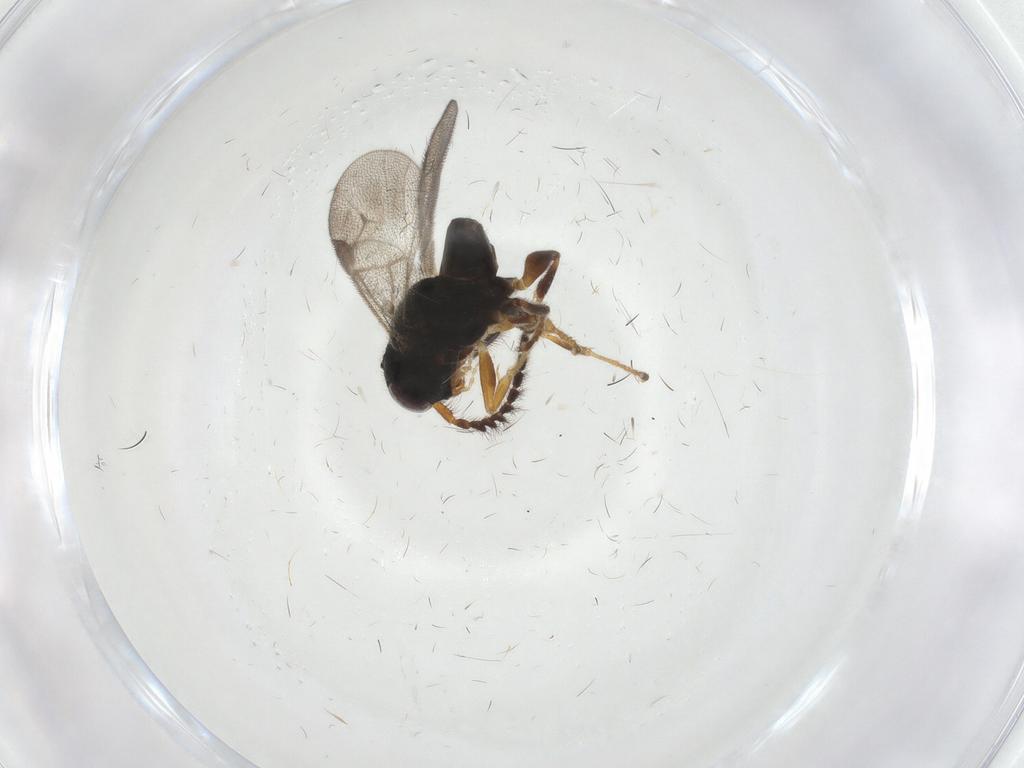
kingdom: Animalia
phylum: Arthropoda
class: Insecta
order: Hymenoptera
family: Dryinidae
